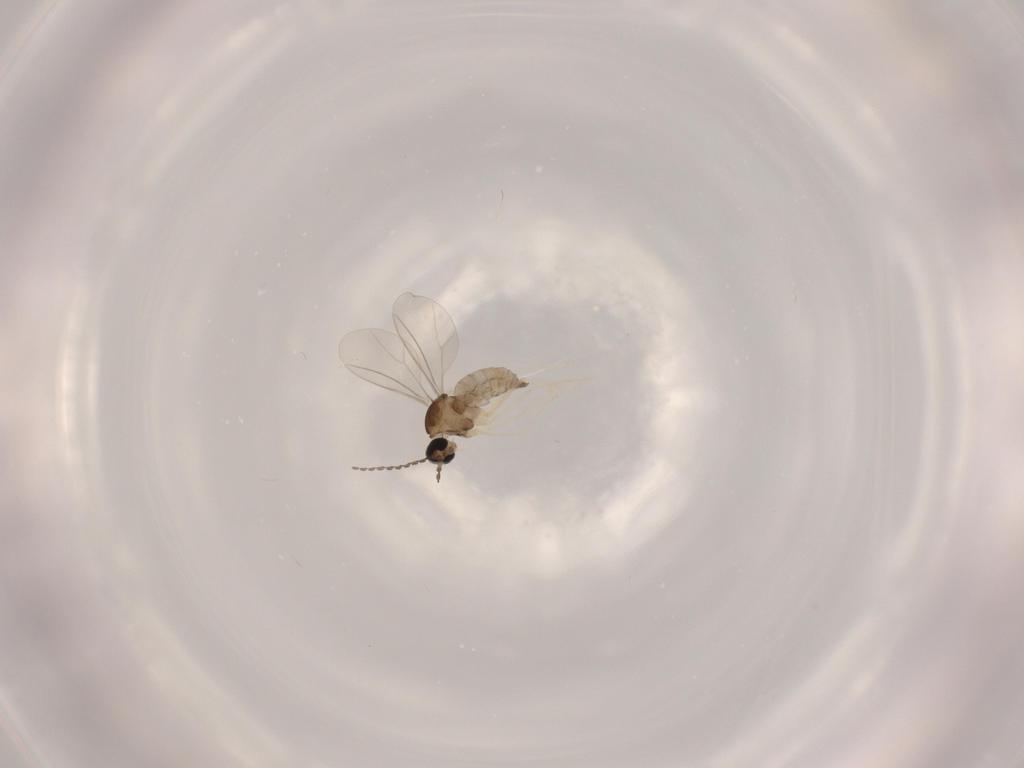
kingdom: Animalia
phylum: Arthropoda
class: Insecta
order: Diptera
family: Cecidomyiidae
